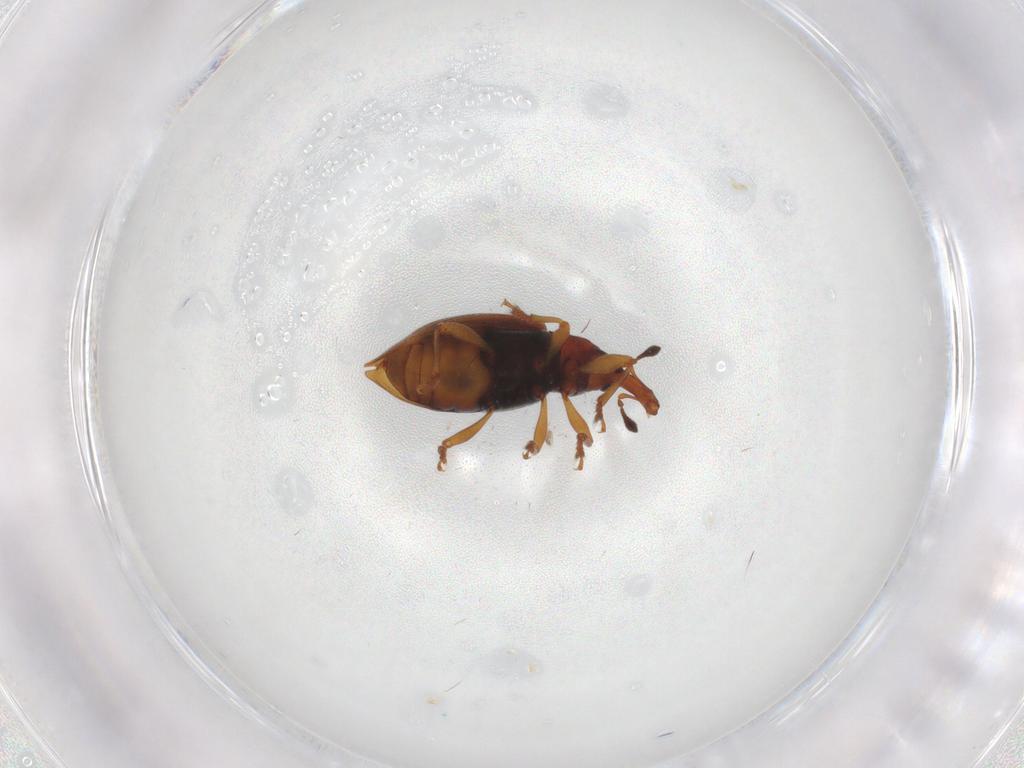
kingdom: Animalia
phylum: Arthropoda
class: Insecta
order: Coleoptera
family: Curculionidae
